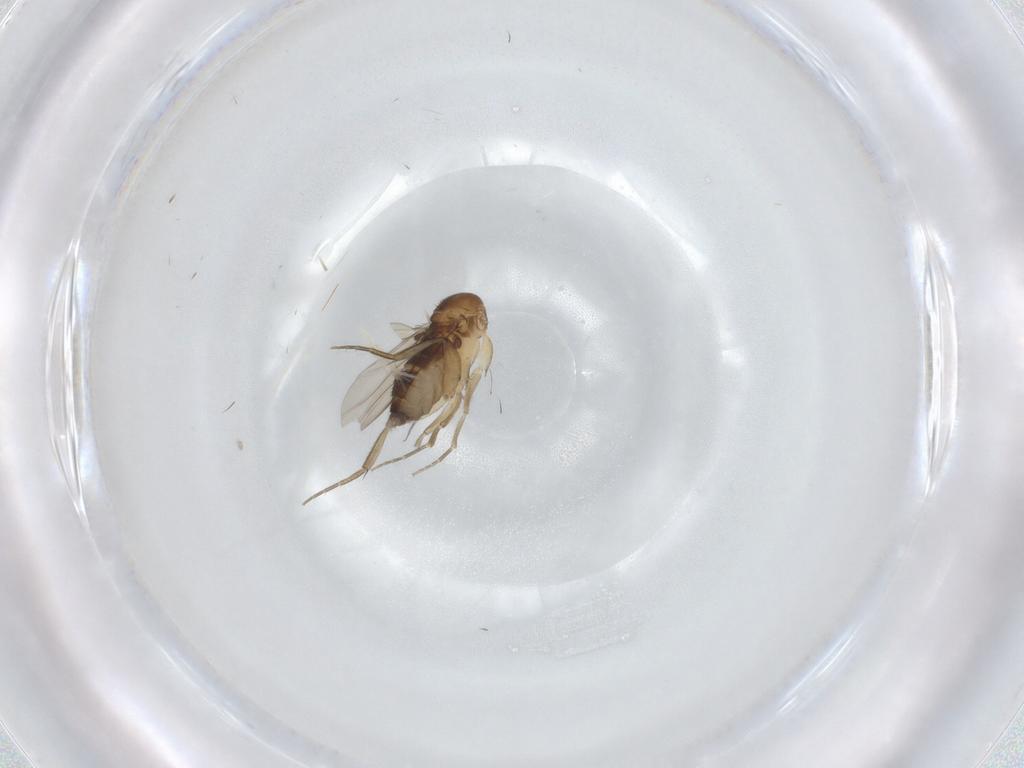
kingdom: Animalia
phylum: Arthropoda
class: Insecta
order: Diptera
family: Phoridae
